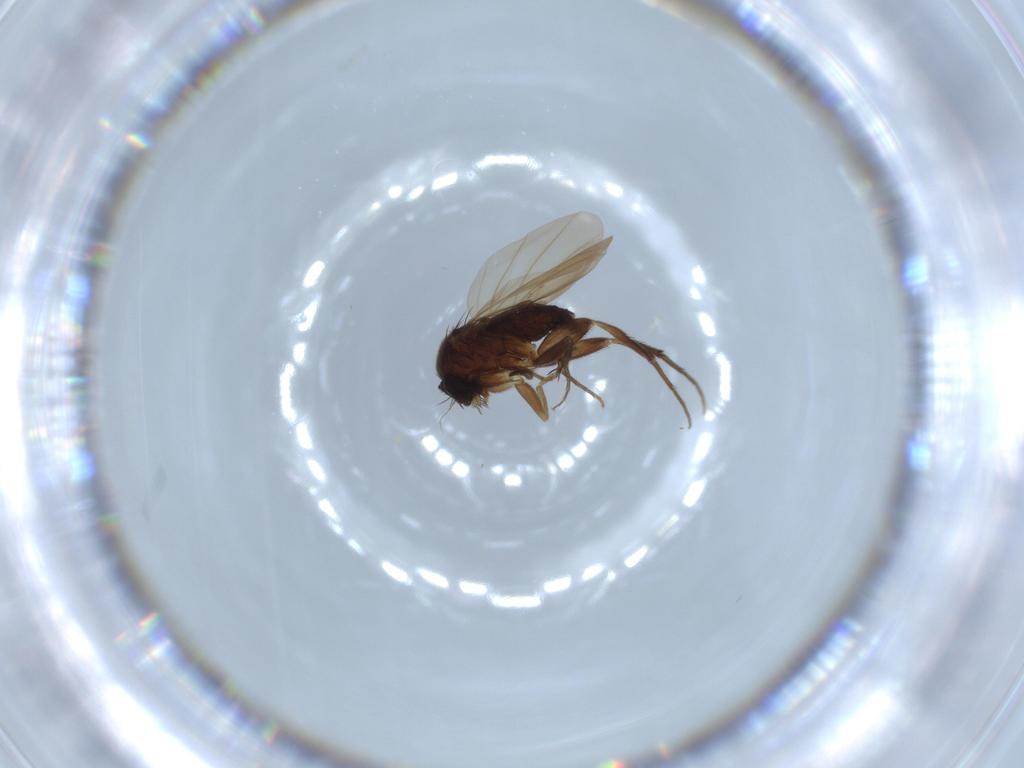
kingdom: Animalia
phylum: Arthropoda
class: Insecta
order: Diptera
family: Phoridae
